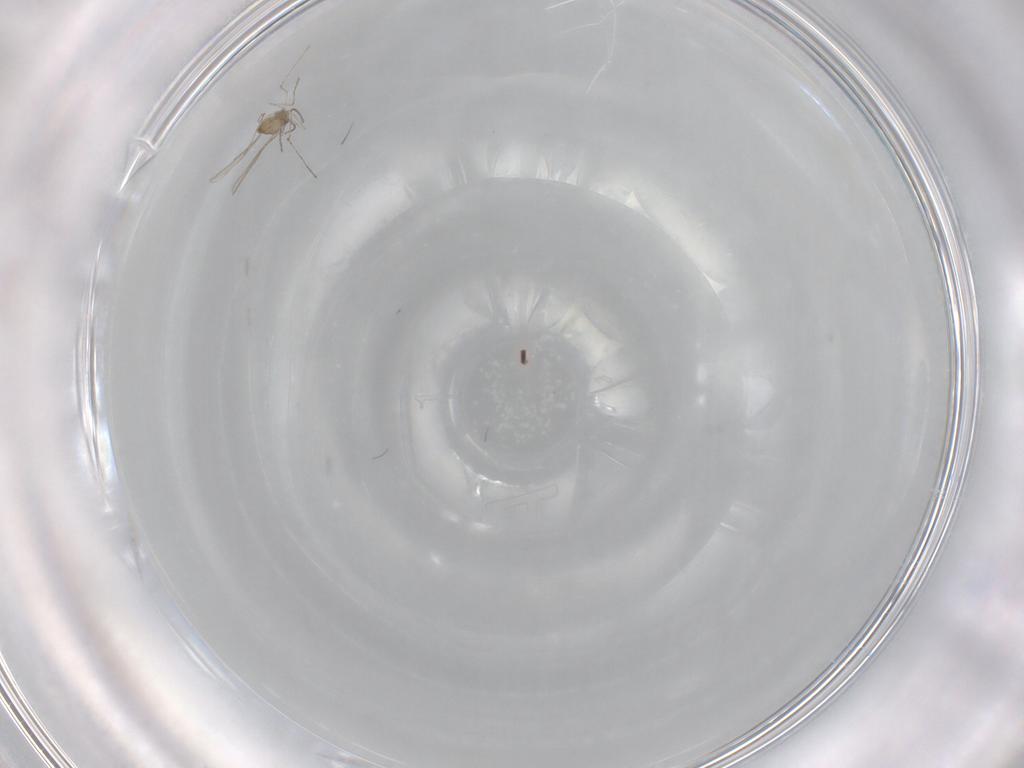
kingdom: Animalia
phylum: Arthropoda
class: Insecta
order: Diptera
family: Cecidomyiidae
